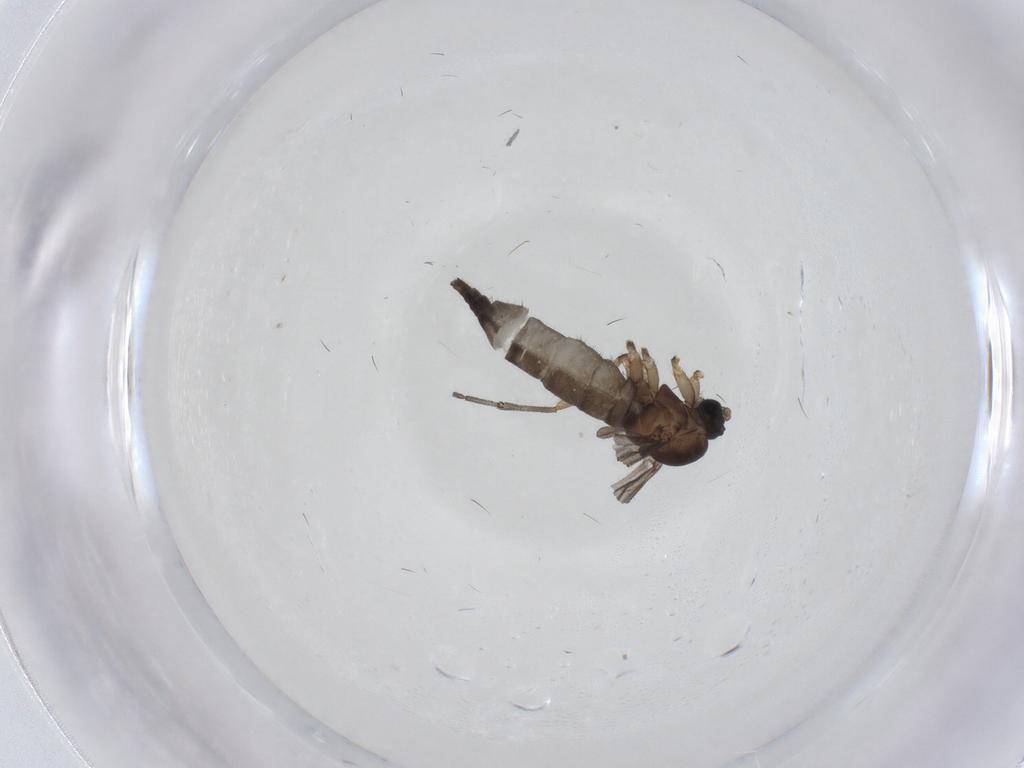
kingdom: Animalia
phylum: Arthropoda
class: Insecta
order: Diptera
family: Sciaridae
